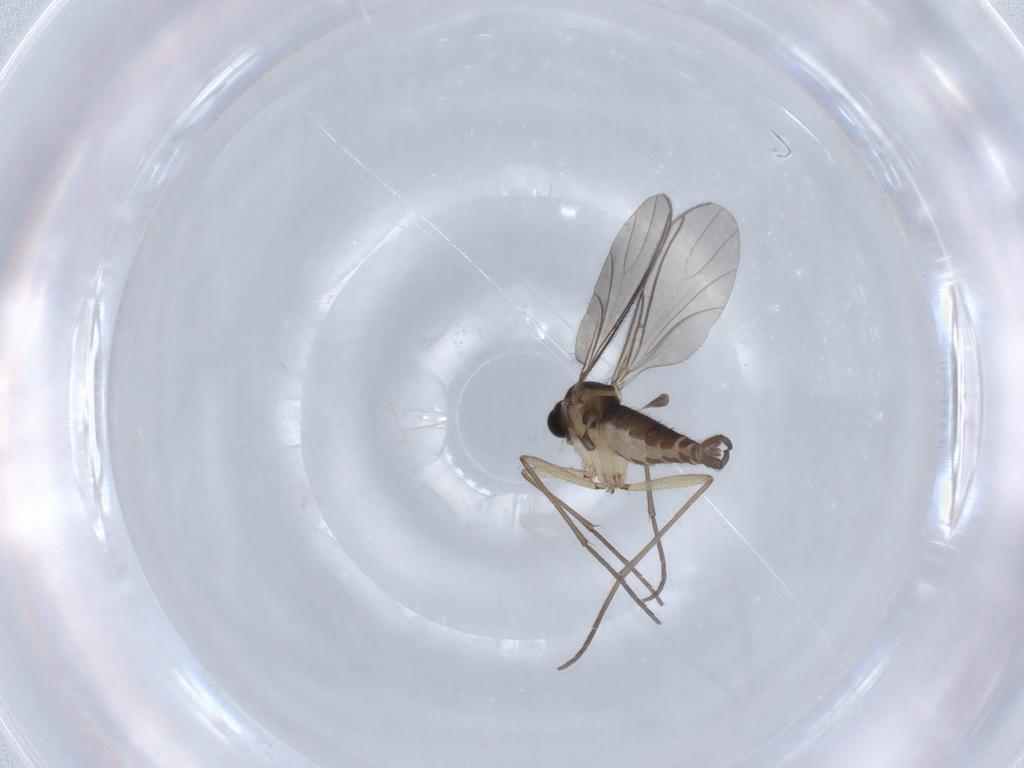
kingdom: Animalia
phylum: Arthropoda
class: Insecta
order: Diptera
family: Sciaridae
